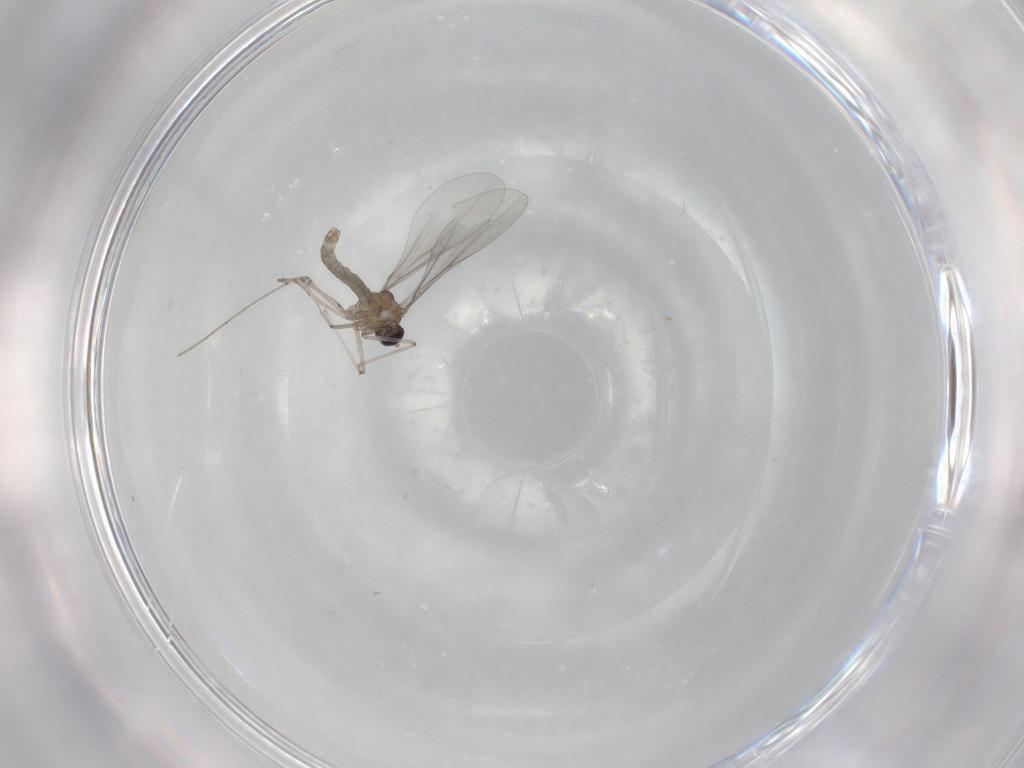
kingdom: Animalia
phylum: Arthropoda
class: Insecta
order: Diptera
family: Cecidomyiidae
